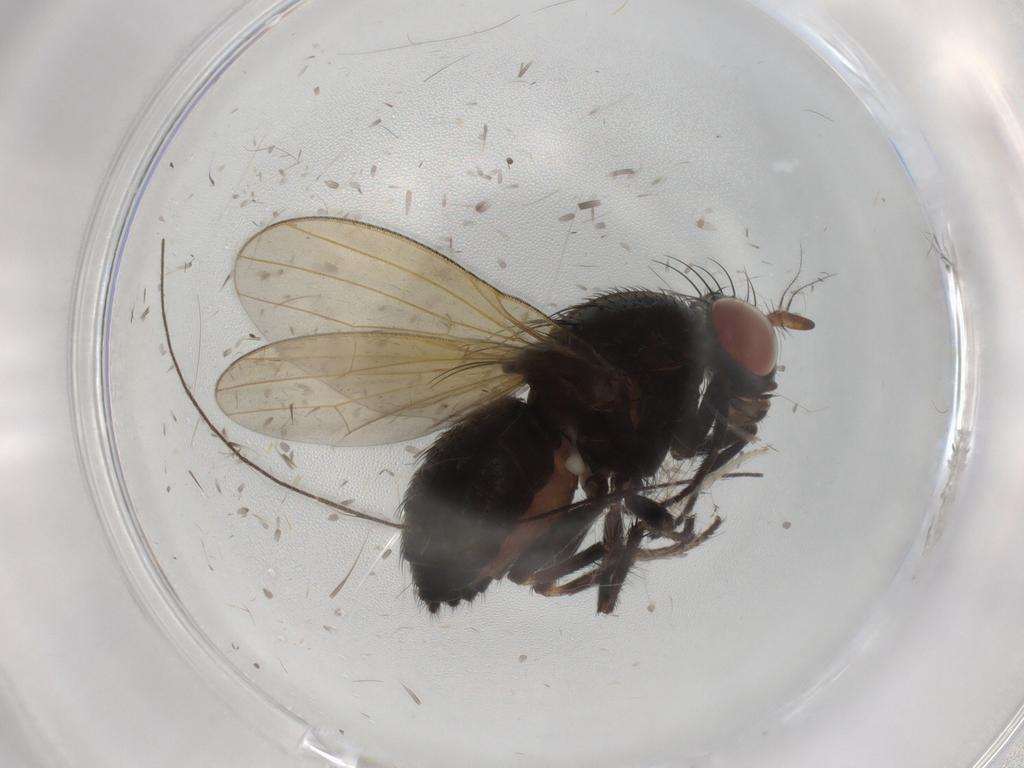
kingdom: Animalia
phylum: Arthropoda
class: Insecta
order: Diptera
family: Lauxaniidae
